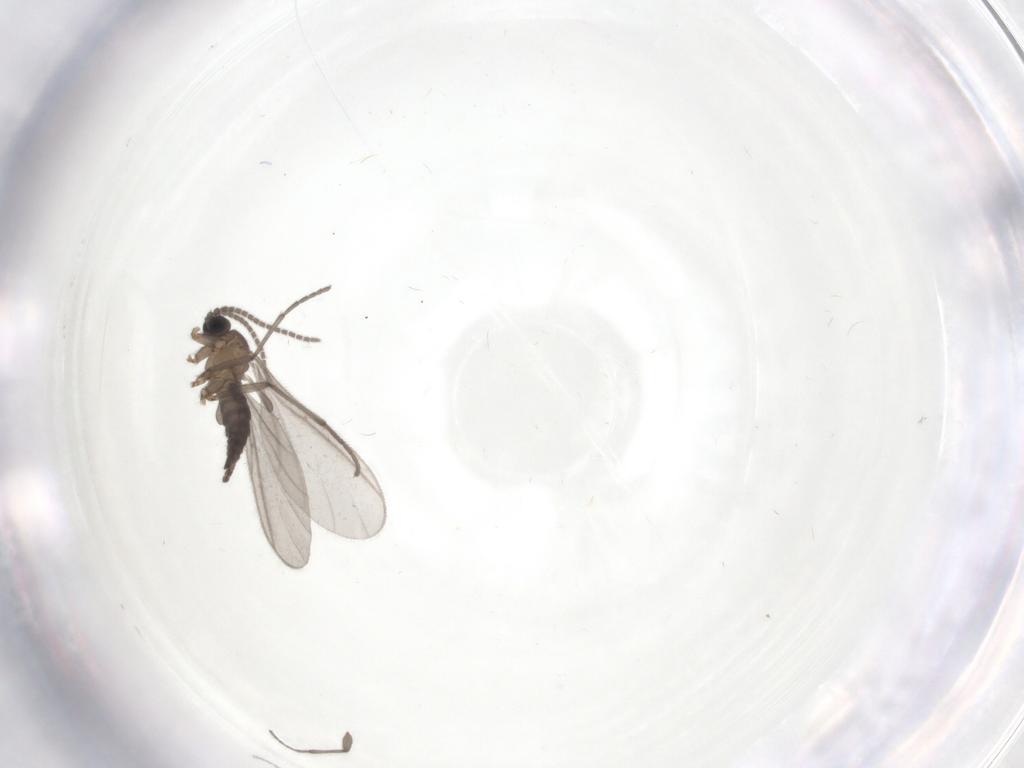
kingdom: Animalia
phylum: Arthropoda
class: Insecta
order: Diptera
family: Sciaridae
